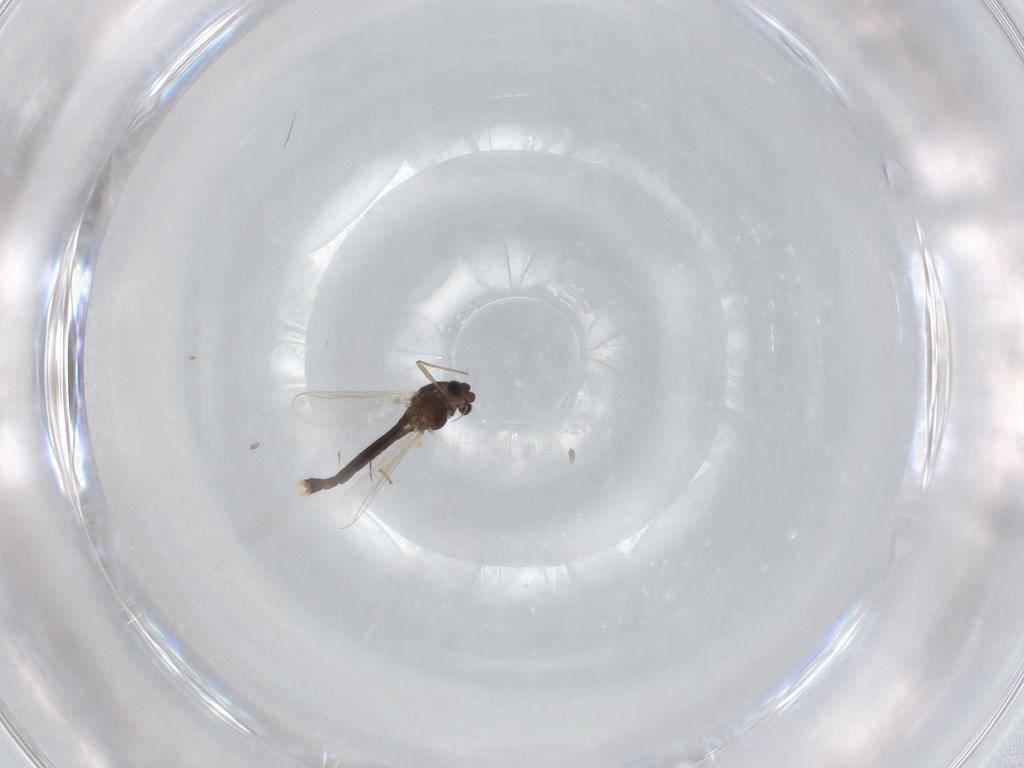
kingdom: Animalia
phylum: Arthropoda
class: Insecta
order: Diptera
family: Chironomidae
